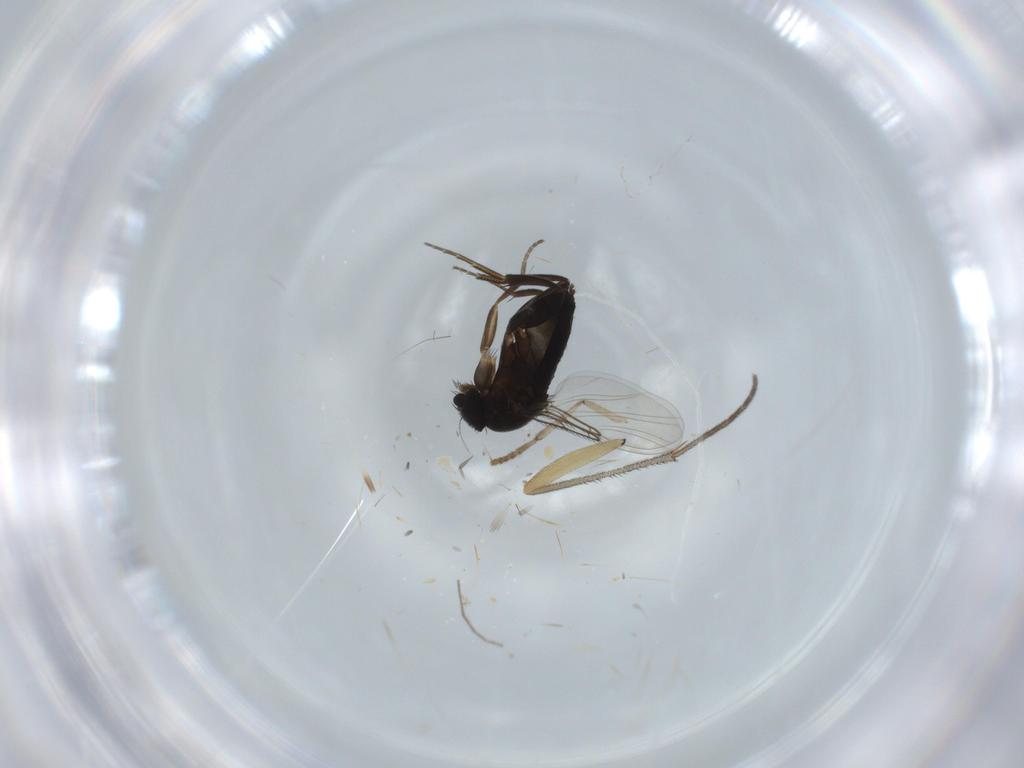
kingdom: Animalia
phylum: Arthropoda
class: Insecta
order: Diptera
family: Phoridae
